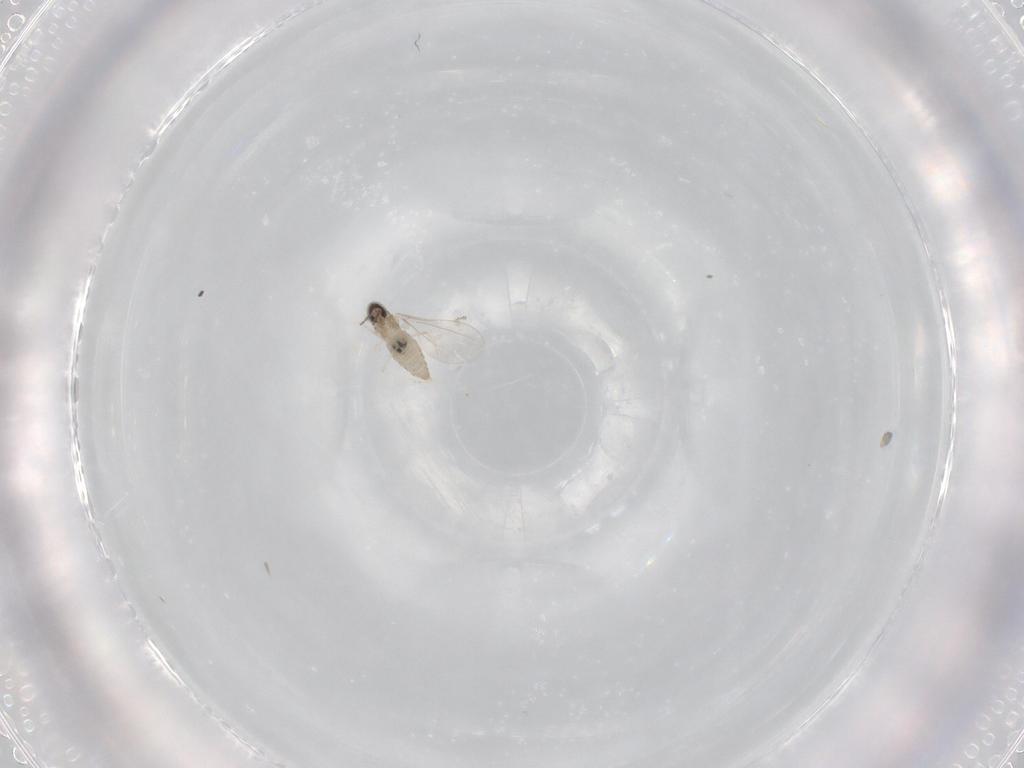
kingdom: Animalia
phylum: Arthropoda
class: Insecta
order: Diptera
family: Cecidomyiidae
